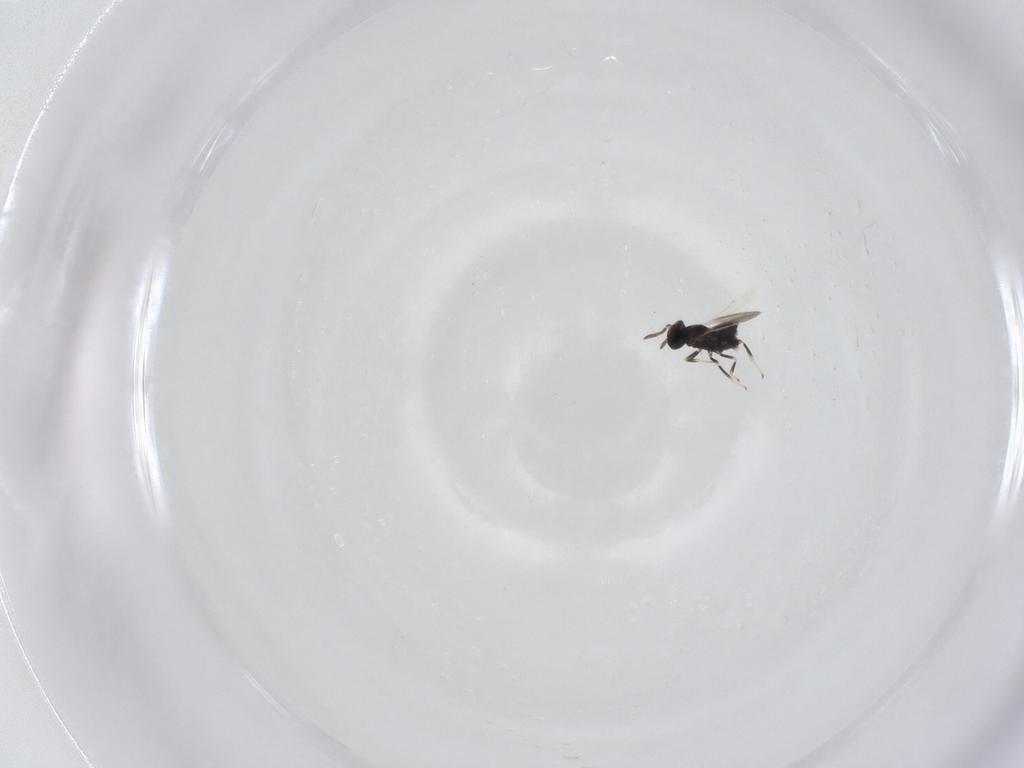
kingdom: Animalia
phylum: Arthropoda
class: Insecta
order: Hymenoptera
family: Aphelinidae
